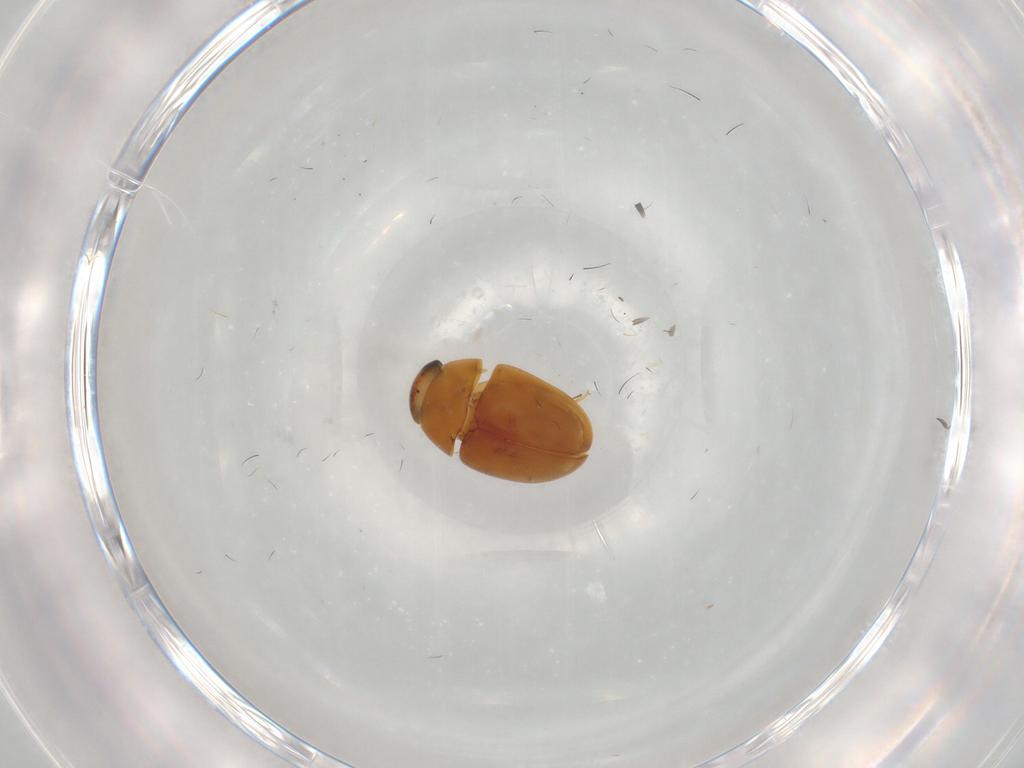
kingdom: Animalia
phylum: Arthropoda
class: Insecta
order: Coleoptera
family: Phalacridae
